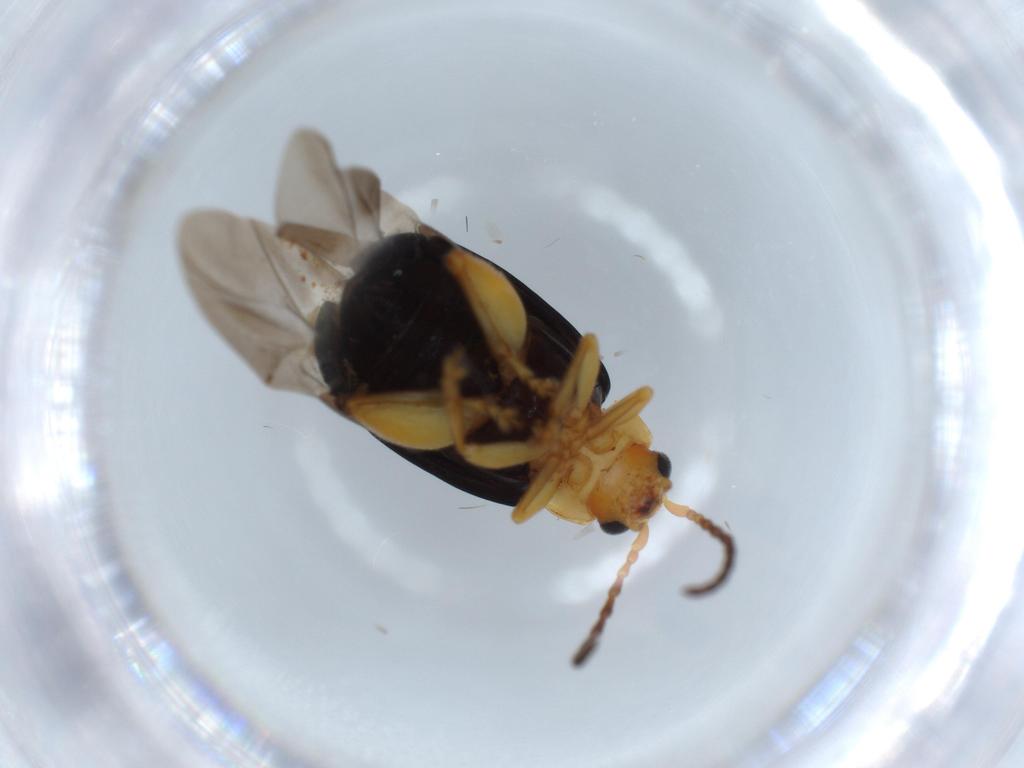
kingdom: Animalia
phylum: Arthropoda
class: Insecta
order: Coleoptera
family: Chrysomelidae
